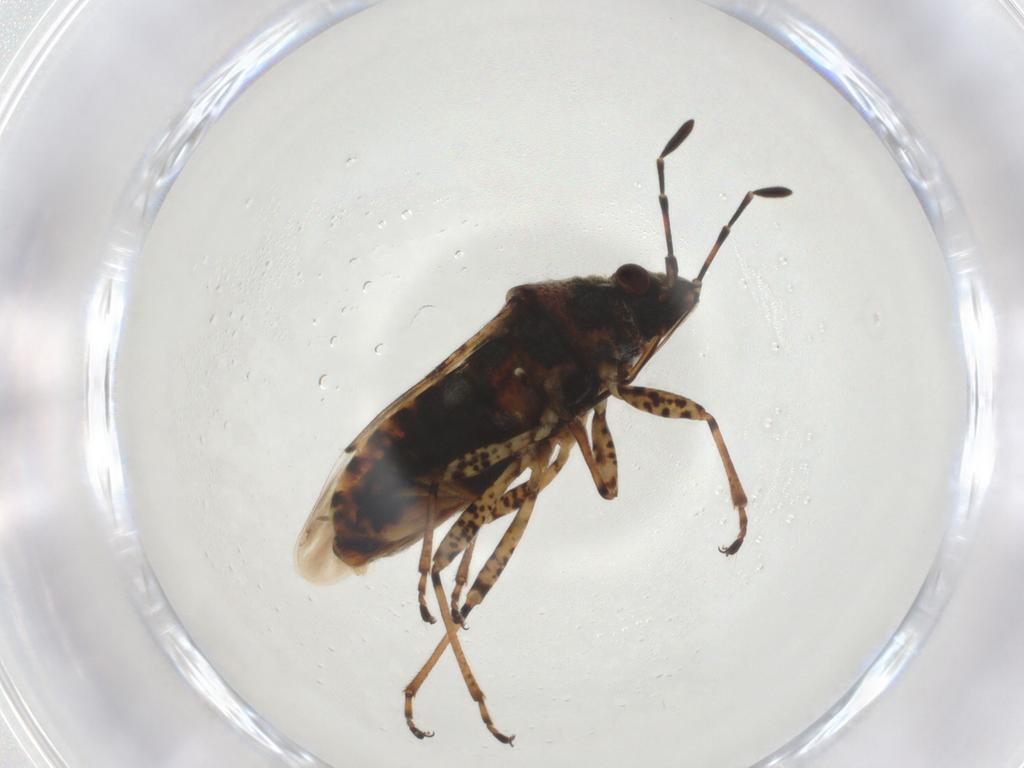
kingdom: Animalia
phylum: Arthropoda
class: Insecta
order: Hemiptera
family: Lygaeidae
